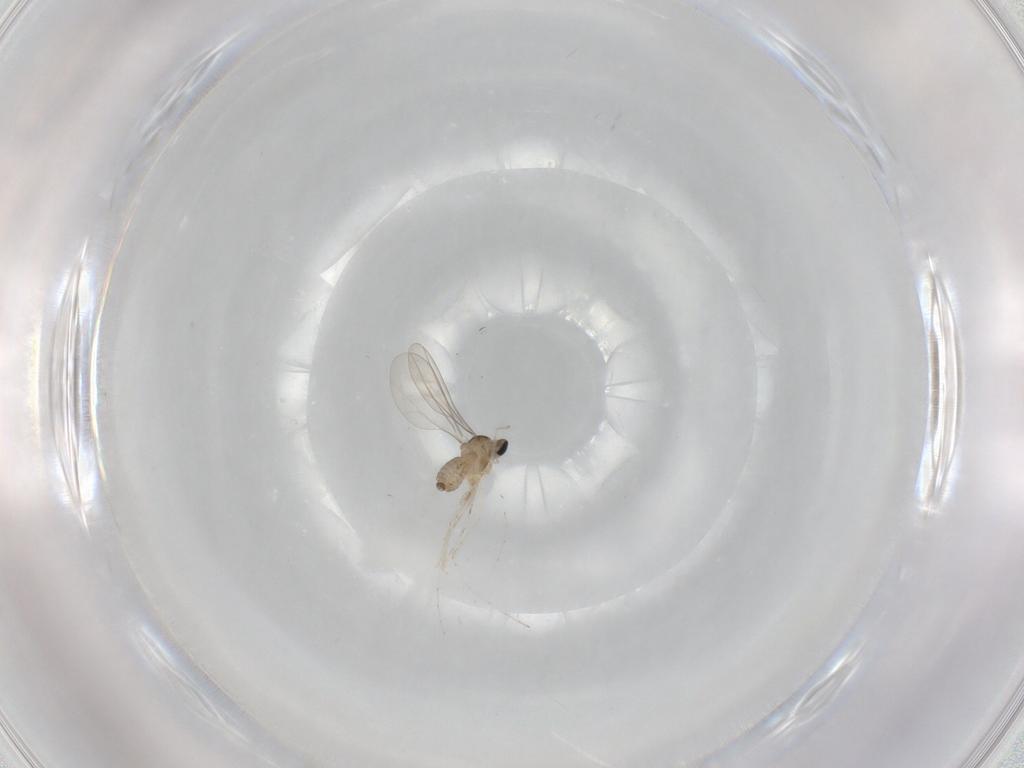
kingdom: Animalia
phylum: Arthropoda
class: Insecta
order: Diptera
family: Cecidomyiidae
